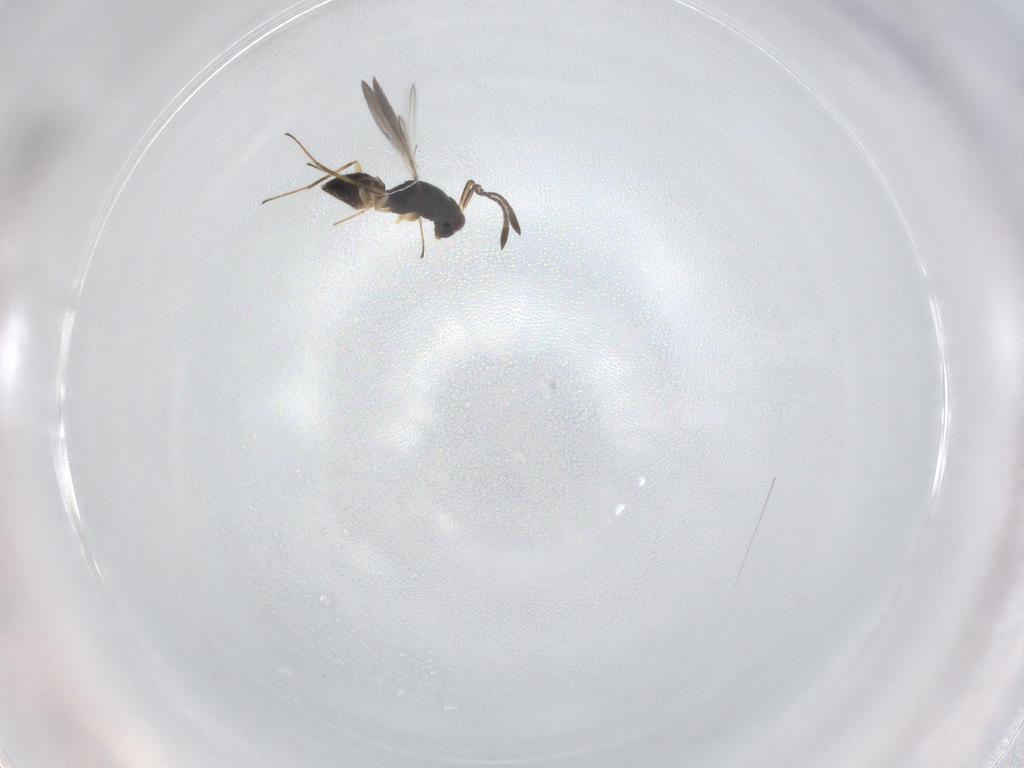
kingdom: Animalia
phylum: Arthropoda
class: Insecta
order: Hymenoptera
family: Mymaridae
